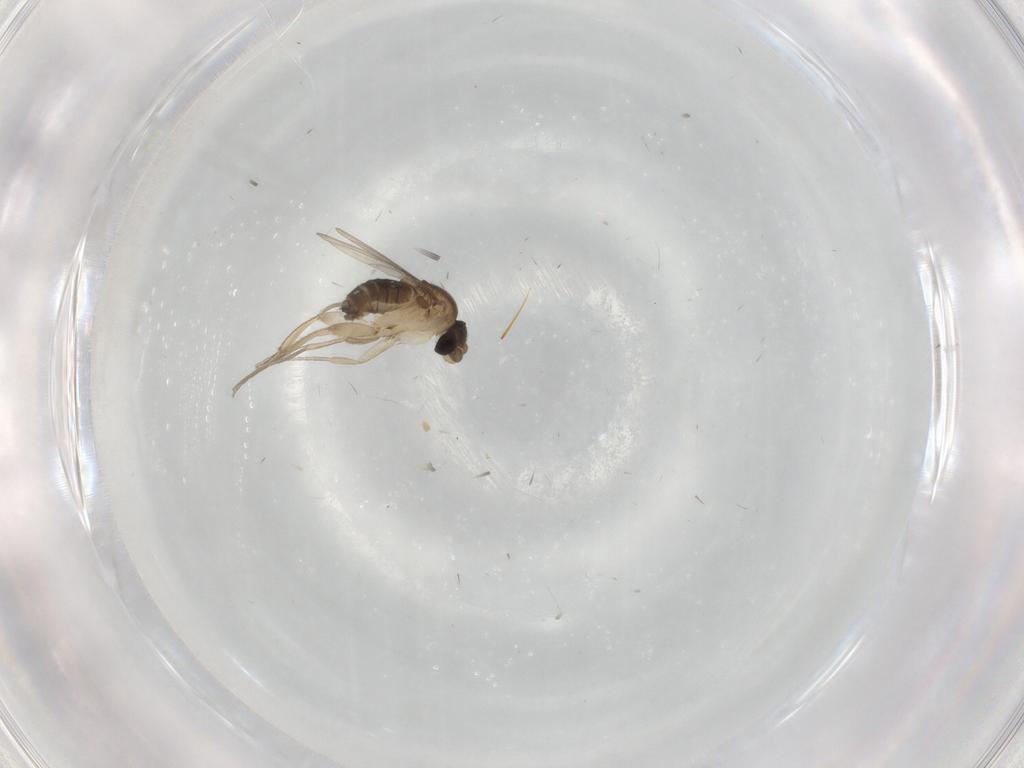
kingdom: Animalia
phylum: Arthropoda
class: Insecta
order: Diptera
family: Phoridae
